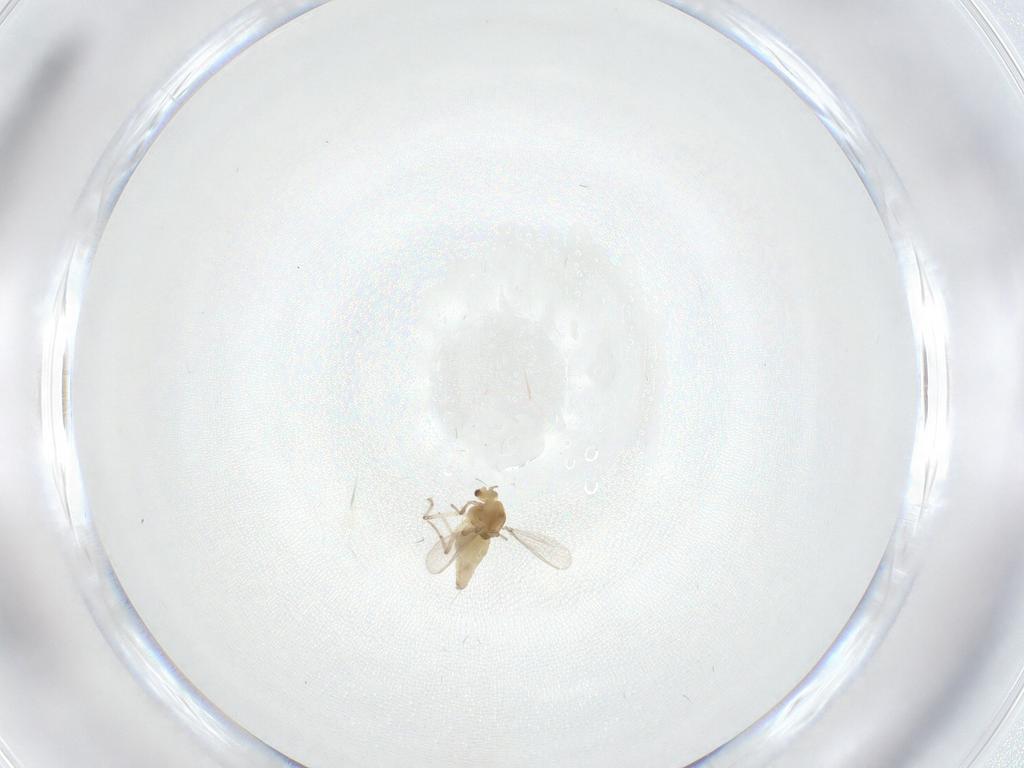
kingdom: Animalia
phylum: Arthropoda
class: Insecta
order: Diptera
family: Chironomidae
